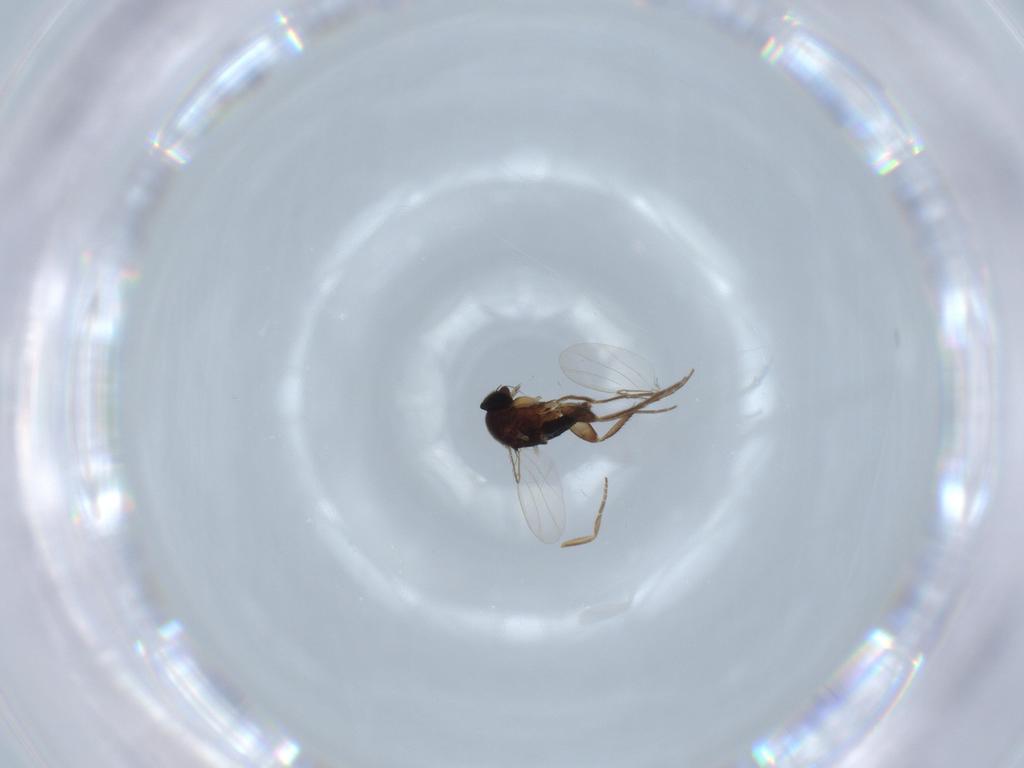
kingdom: Animalia
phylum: Arthropoda
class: Insecta
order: Diptera
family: Phoridae
